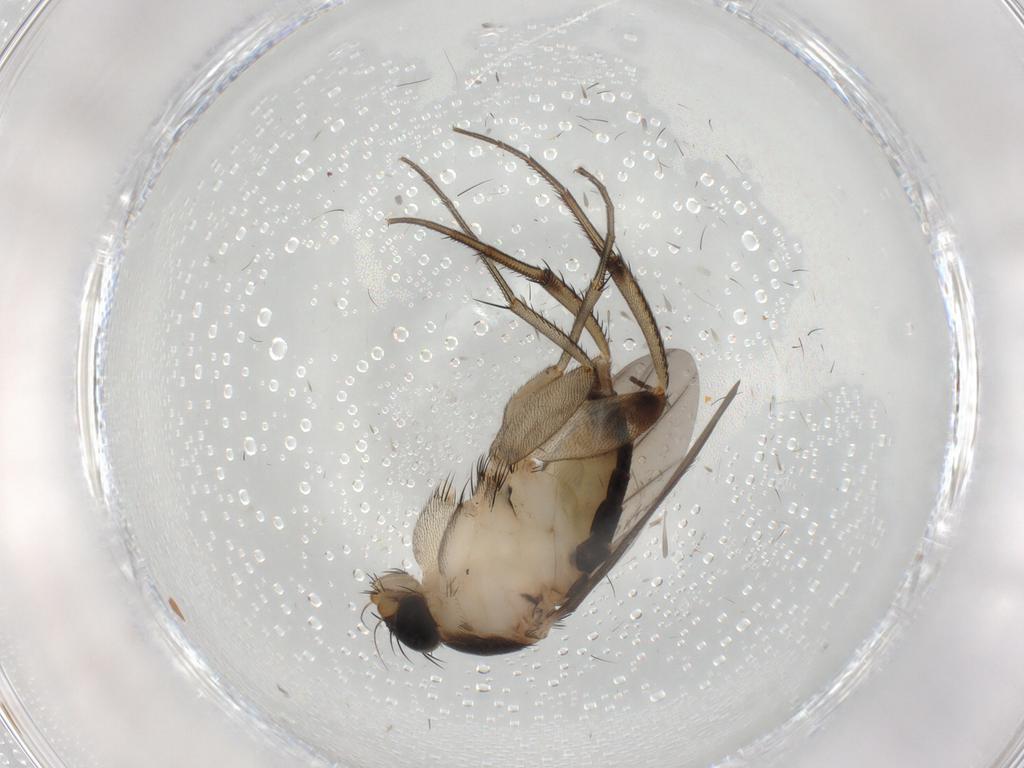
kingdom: Animalia
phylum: Arthropoda
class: Insecta
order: Diptera
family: Phoridae
